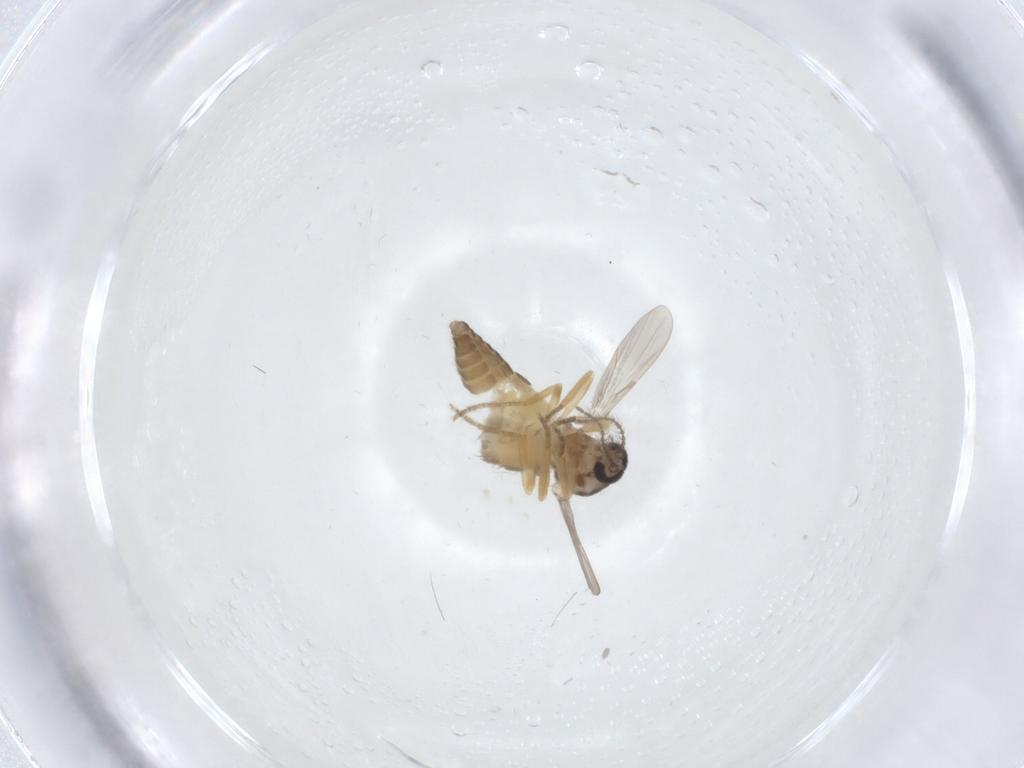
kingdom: Animalia
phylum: Arthropoda
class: Insecta
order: Diptera
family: Ceratopogonidae
